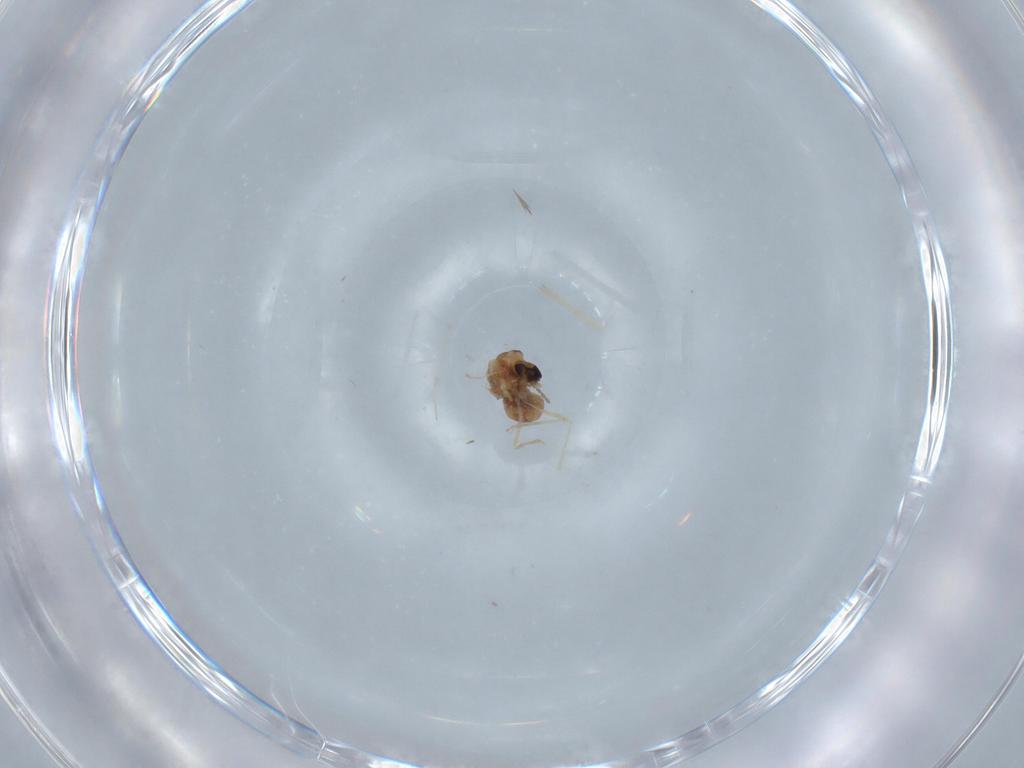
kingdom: Animalia
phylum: Arthropoda
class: Insecta
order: Diptera
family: Cecidomyiidae
